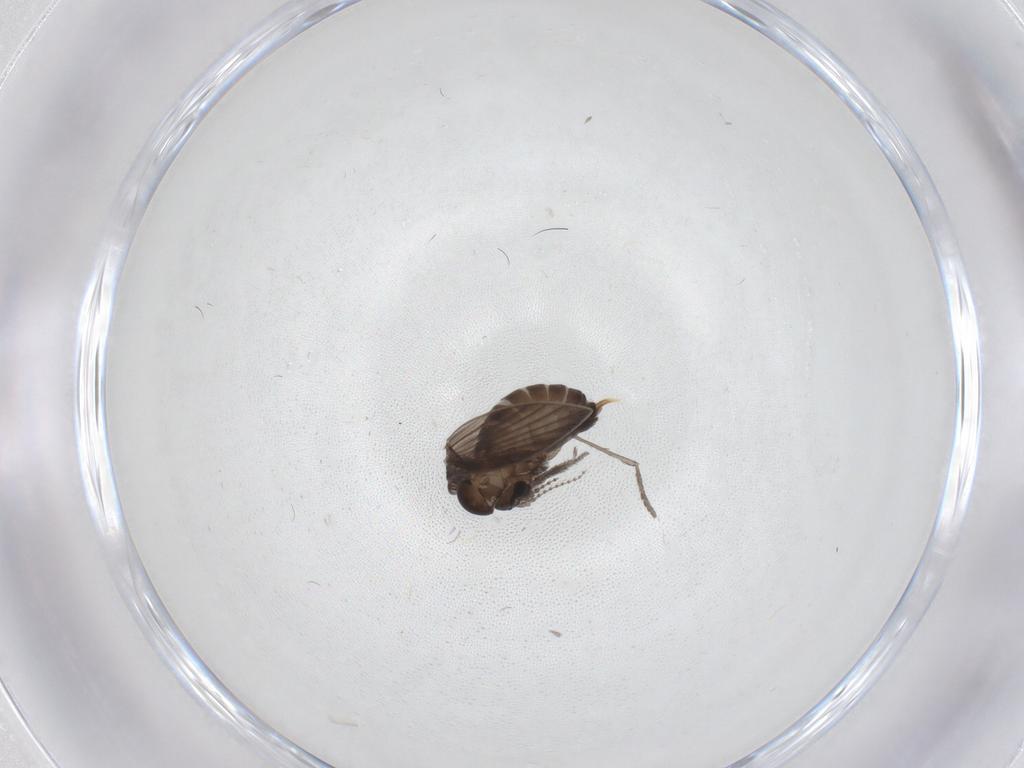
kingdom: Animalia
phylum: Arthropoda
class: Insecta
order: Diptera
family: Psychodidae
